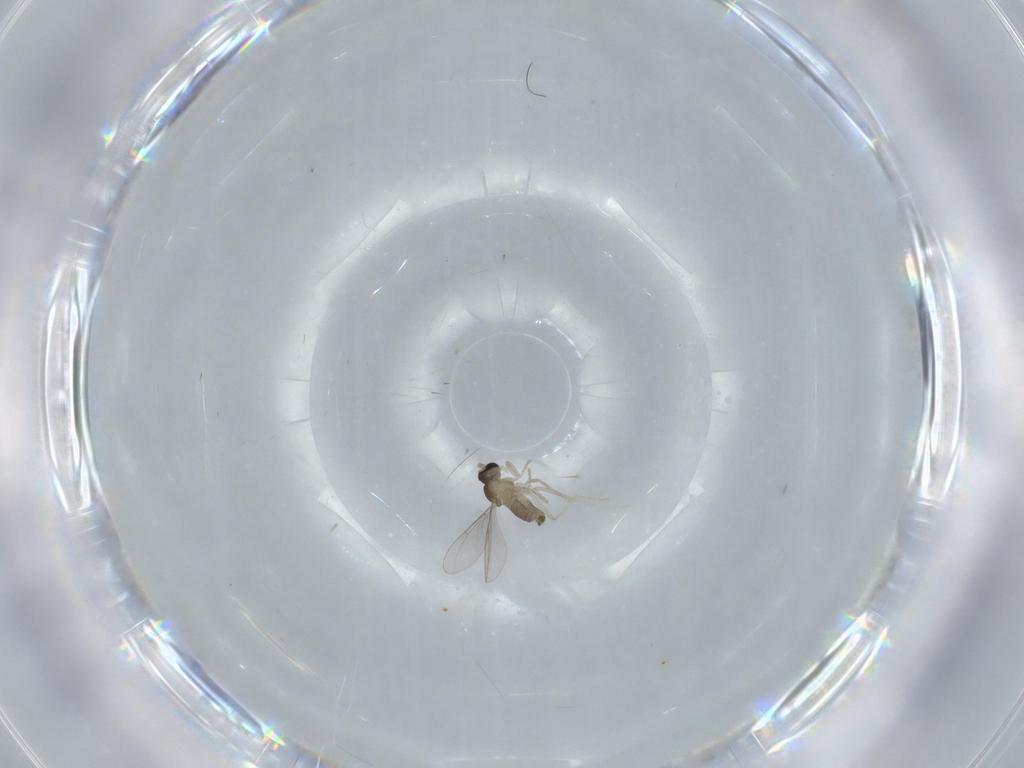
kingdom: Animalia
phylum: Arthropoda
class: Insecta
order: Diptera
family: Cecidomyiidae
